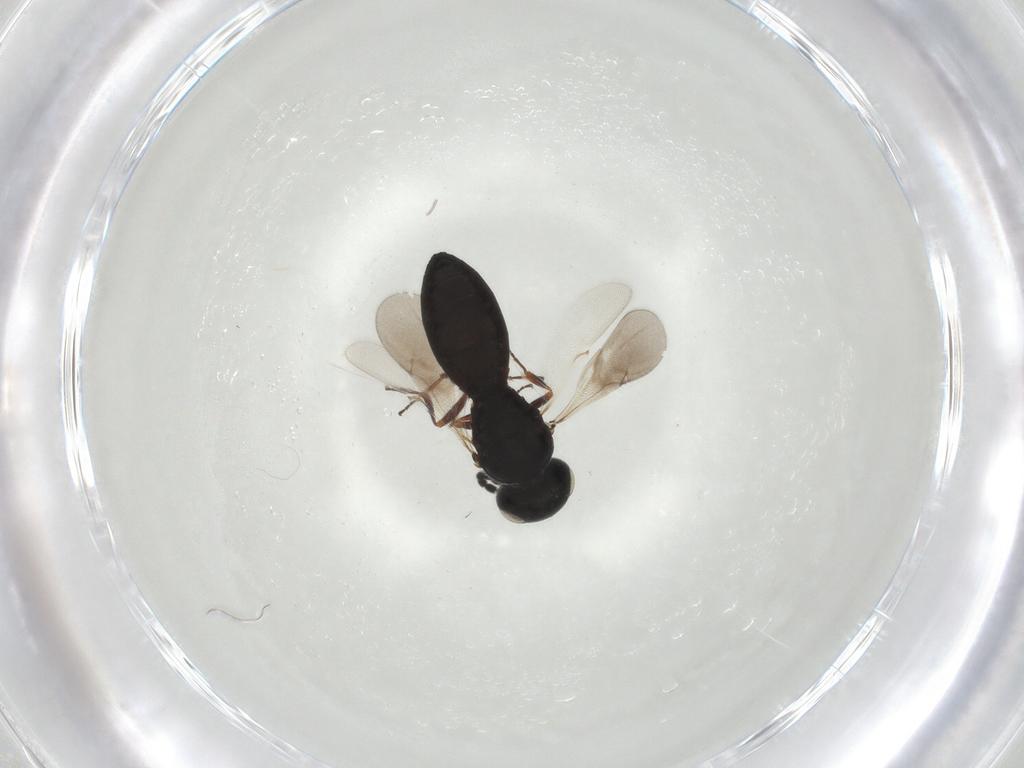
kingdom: Animalia
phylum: Arthropoda
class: Insecta
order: Hymenoptera
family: Scelionidae
